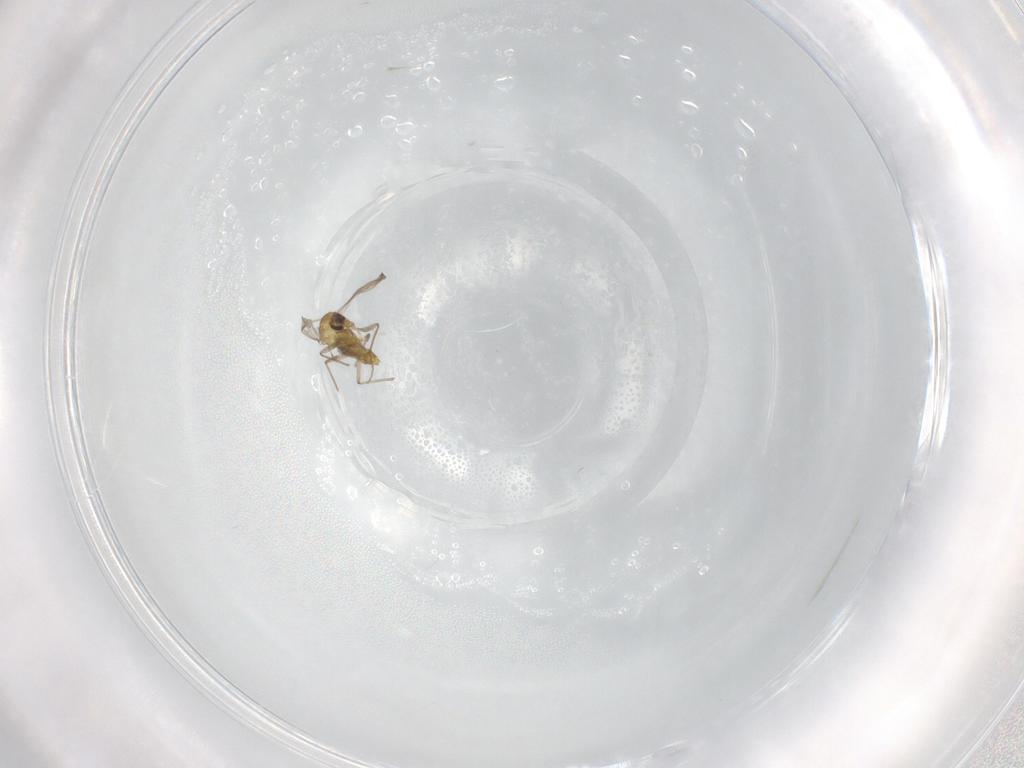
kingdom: Animalia
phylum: Arthropoda
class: Insecta
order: Diptera
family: Chironomidae
